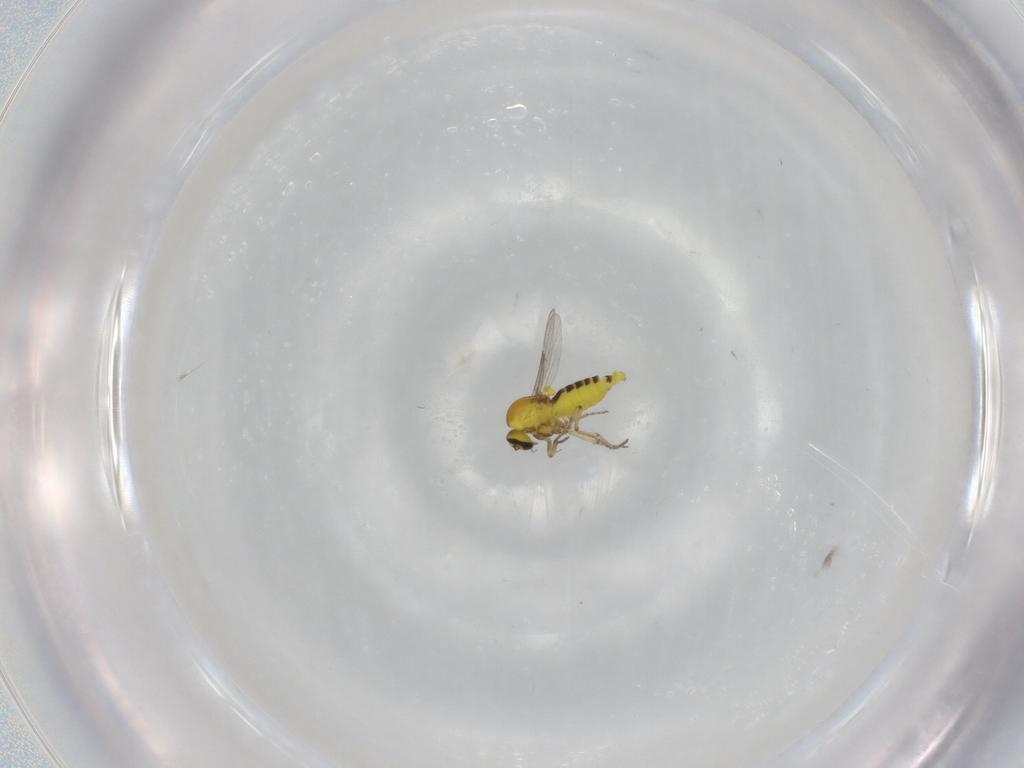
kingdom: Animalia
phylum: Arthropoda
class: Insecta
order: Diptera
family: Ceratopogonidae
